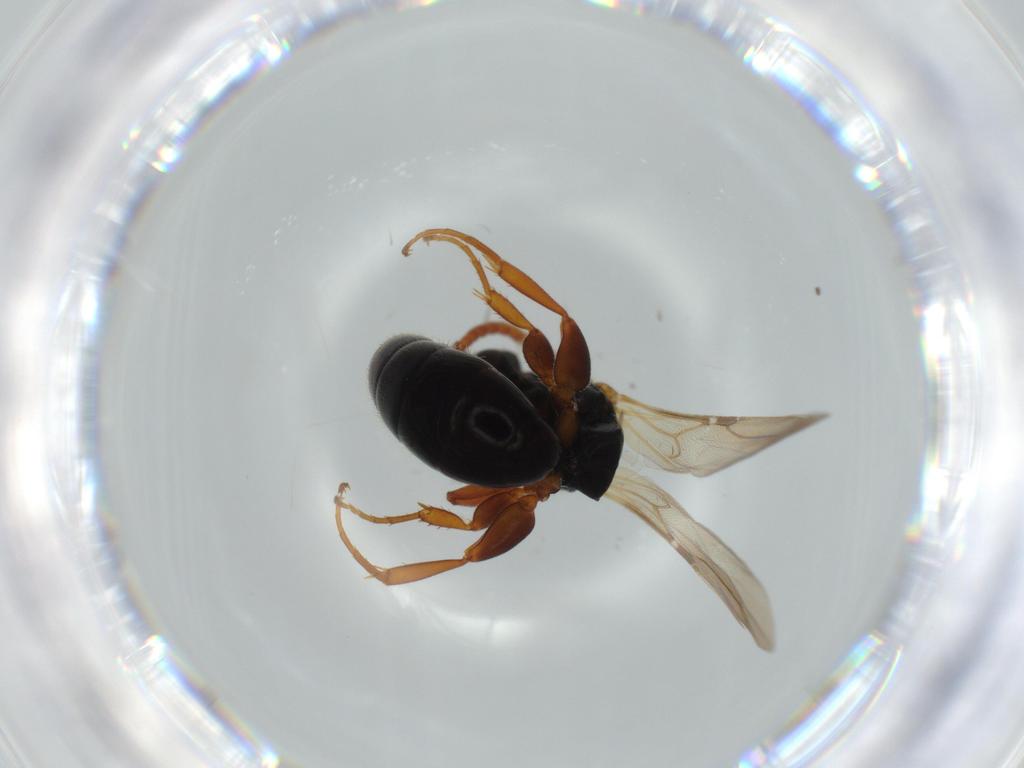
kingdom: Animalia
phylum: Arthropoda
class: Insecta
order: Hymenoptera
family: Bethylidae
